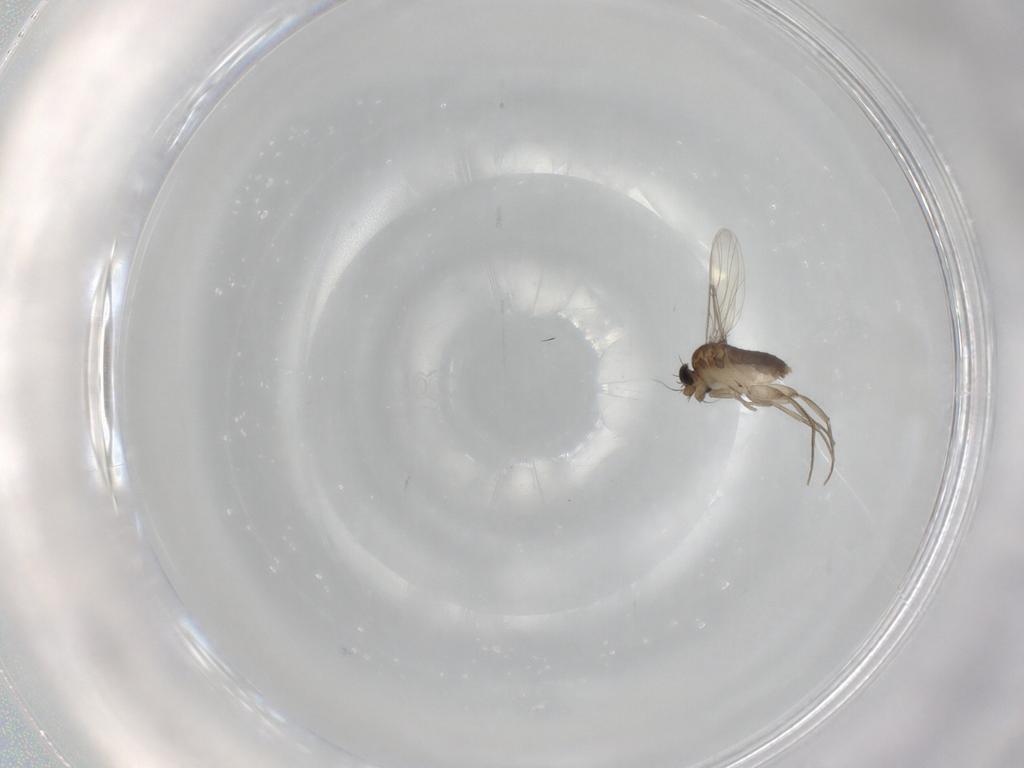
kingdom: Animalia
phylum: Arthropoda
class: Insecta
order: Diptera
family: Phoridae
